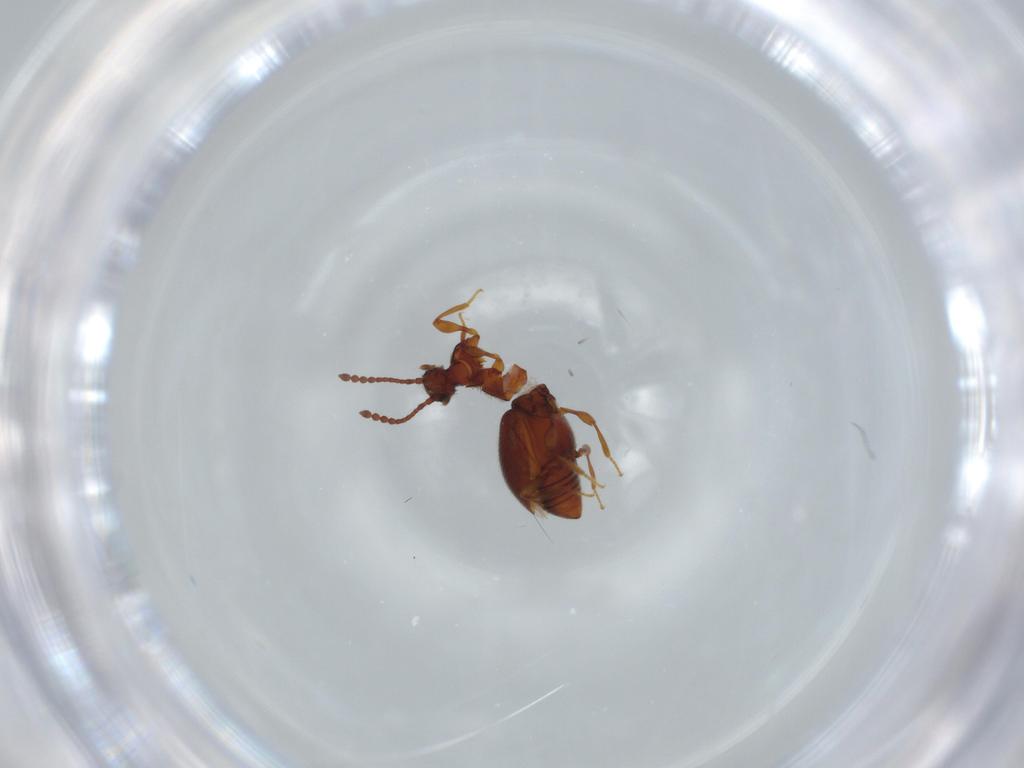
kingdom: Animalia
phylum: Arthropoda
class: Insecta
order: Coleoptera
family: Staphylinidae
